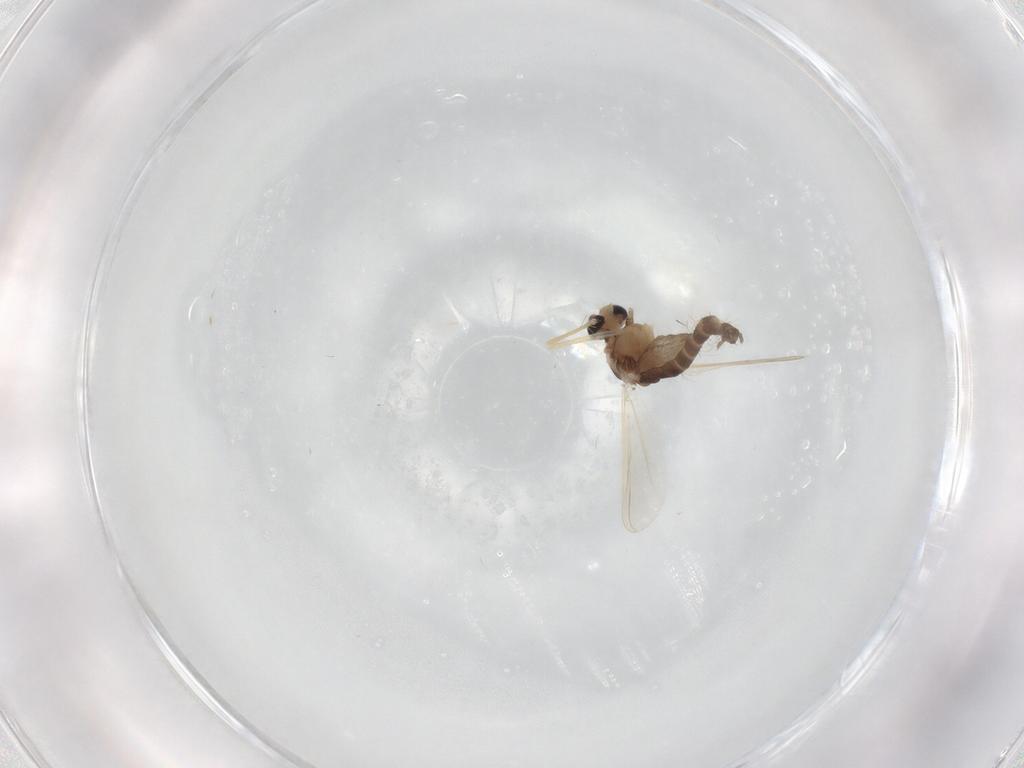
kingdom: Animalia
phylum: Arthropoda
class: Insecta
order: Diptera
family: Chironomidae
